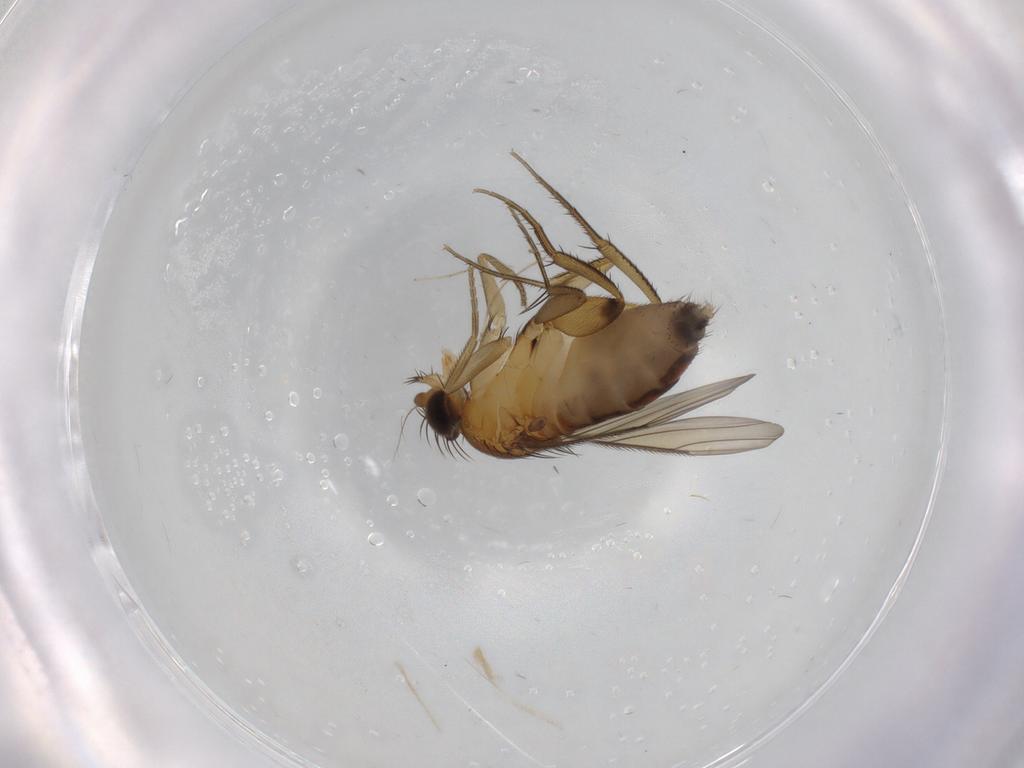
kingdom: Animalia
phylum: Arthropoda
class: Insecta
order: Diptera
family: Phoridae
